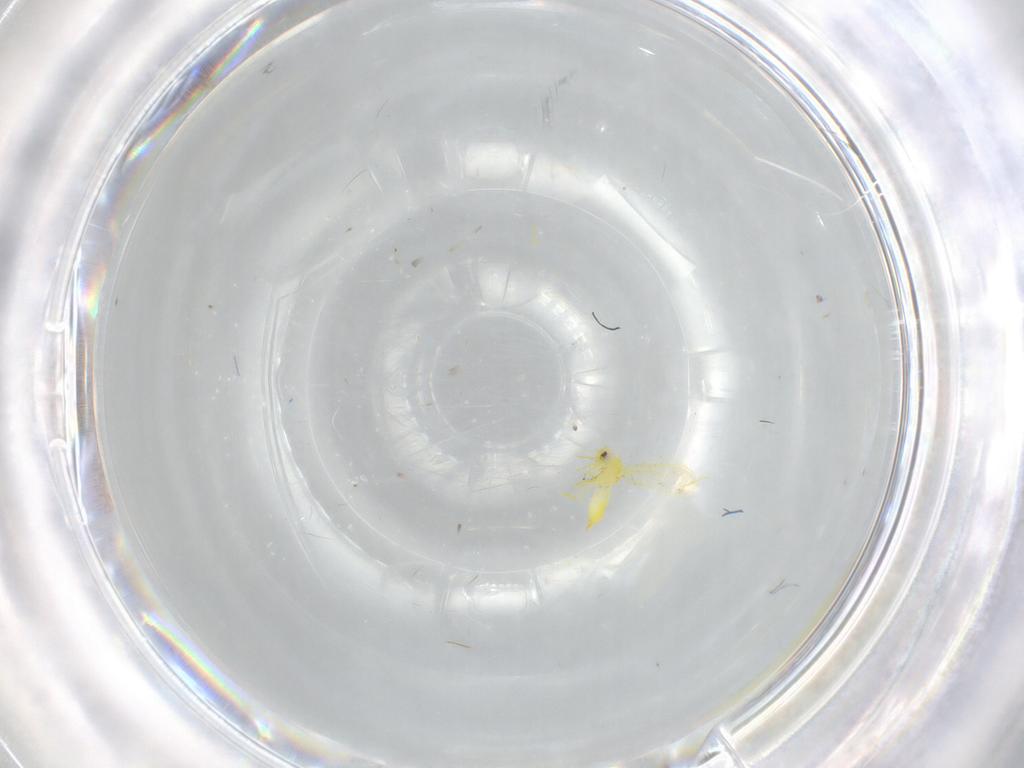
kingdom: Animalia
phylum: Arthropoda
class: Insecta
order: Hemiptera
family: Aleyrodidae
